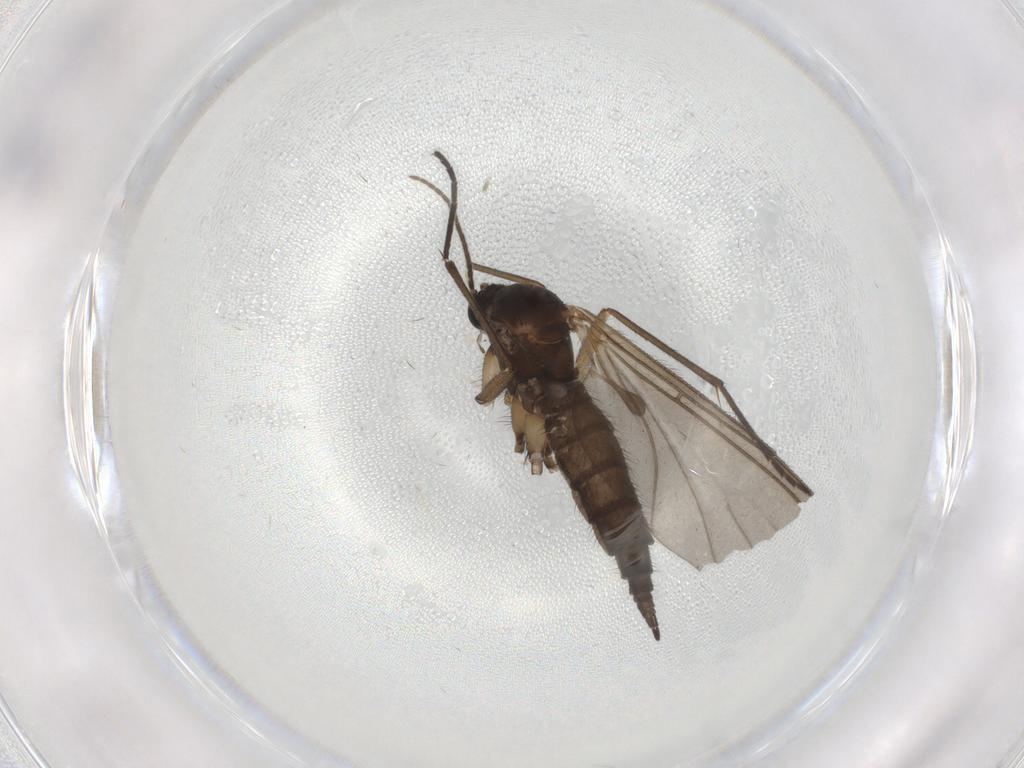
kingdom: Animalia
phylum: Arthropoda
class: Insecta
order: Diptera
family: Sciaridae
